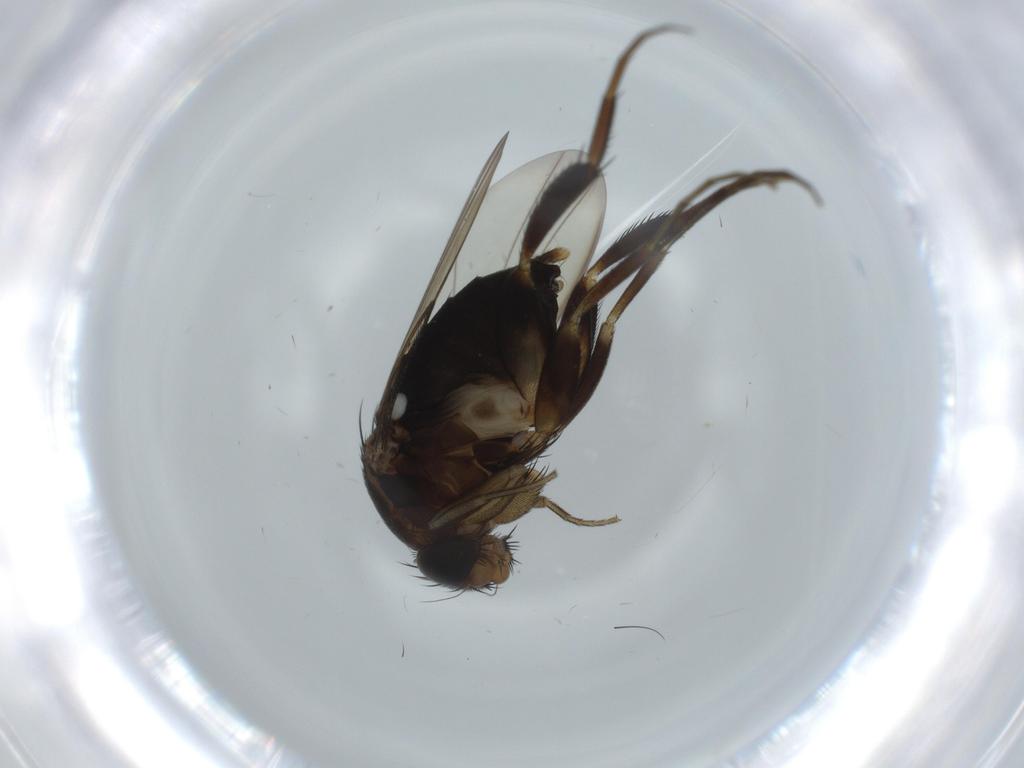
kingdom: Animalia
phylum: Arthropoda
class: Insecta
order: Diptera
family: Phoridae
